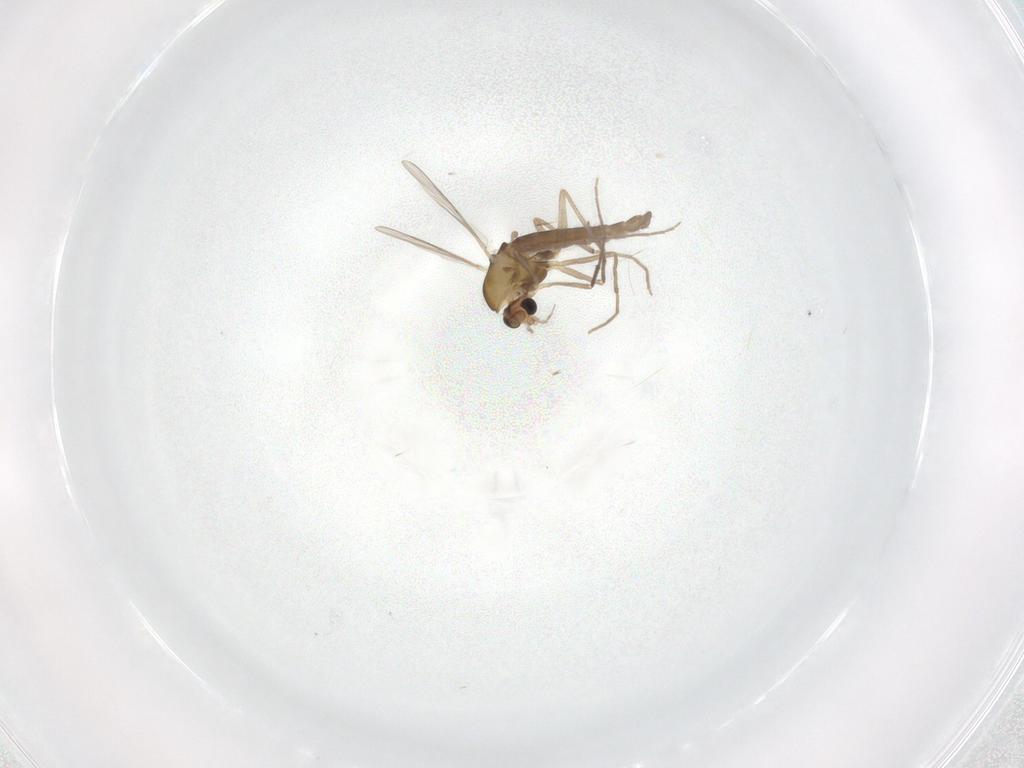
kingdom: Animalia
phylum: Arthropoda
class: Insecta
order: Diptera
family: Chironomidae
